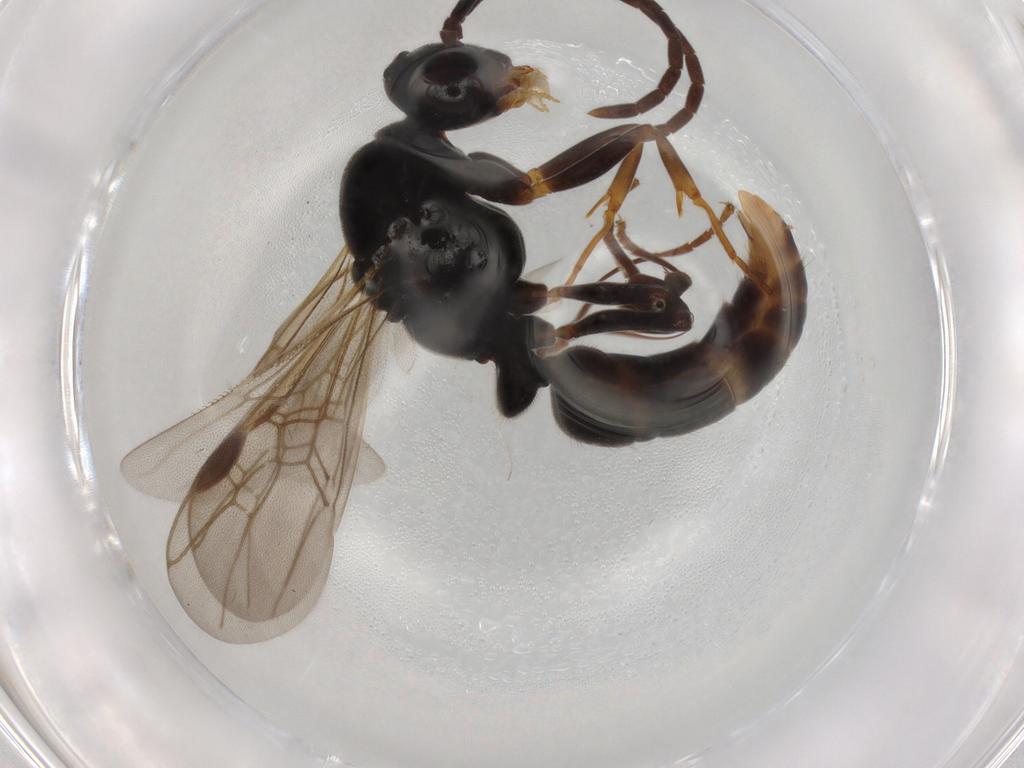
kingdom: Animalia
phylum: Arthropoda
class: Insecta
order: Hymenoptera
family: Formicidae
